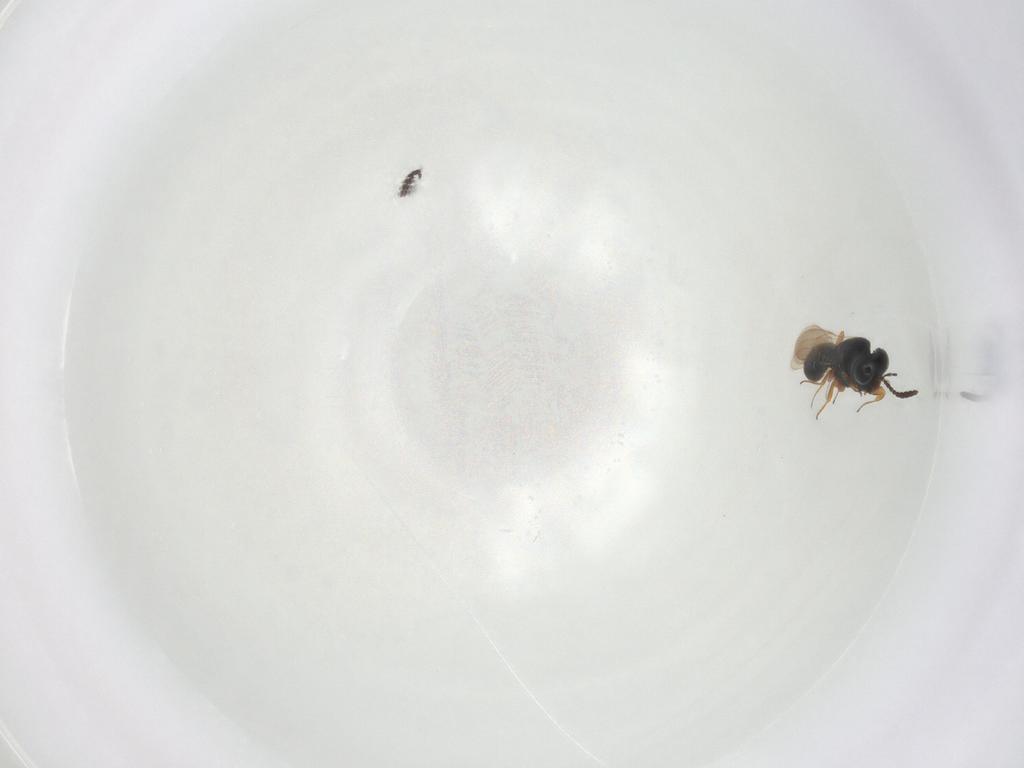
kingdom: Animalia
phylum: Arthropoda
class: Insecta
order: Hymenoptera
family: Scelionidae
